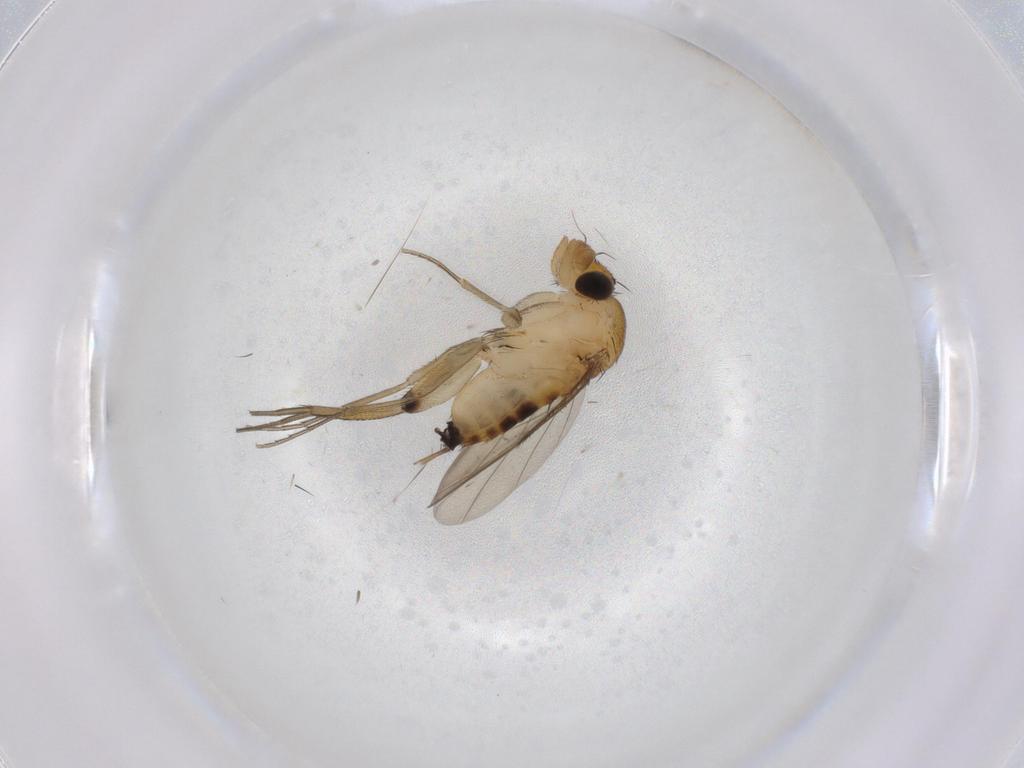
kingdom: Animalia
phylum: Arthropoda
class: Insecta
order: Diptera
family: Phoridae
